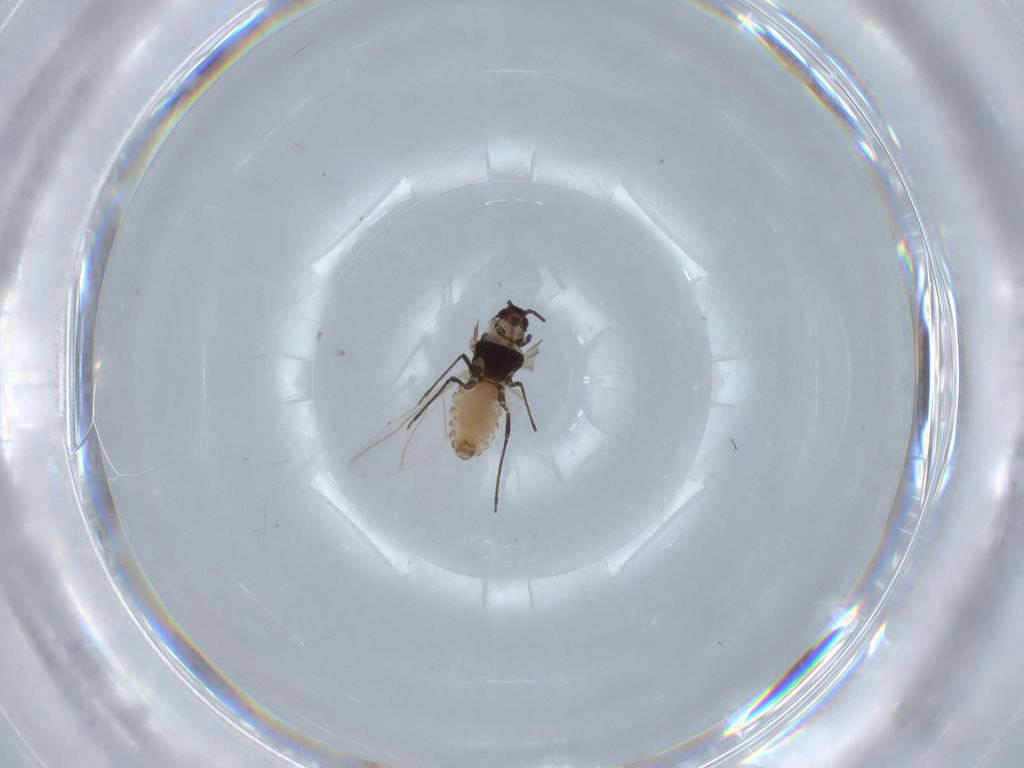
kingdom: Animalia
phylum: Arthropoda
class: Insecta
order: Hemiptera
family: Aphididae
